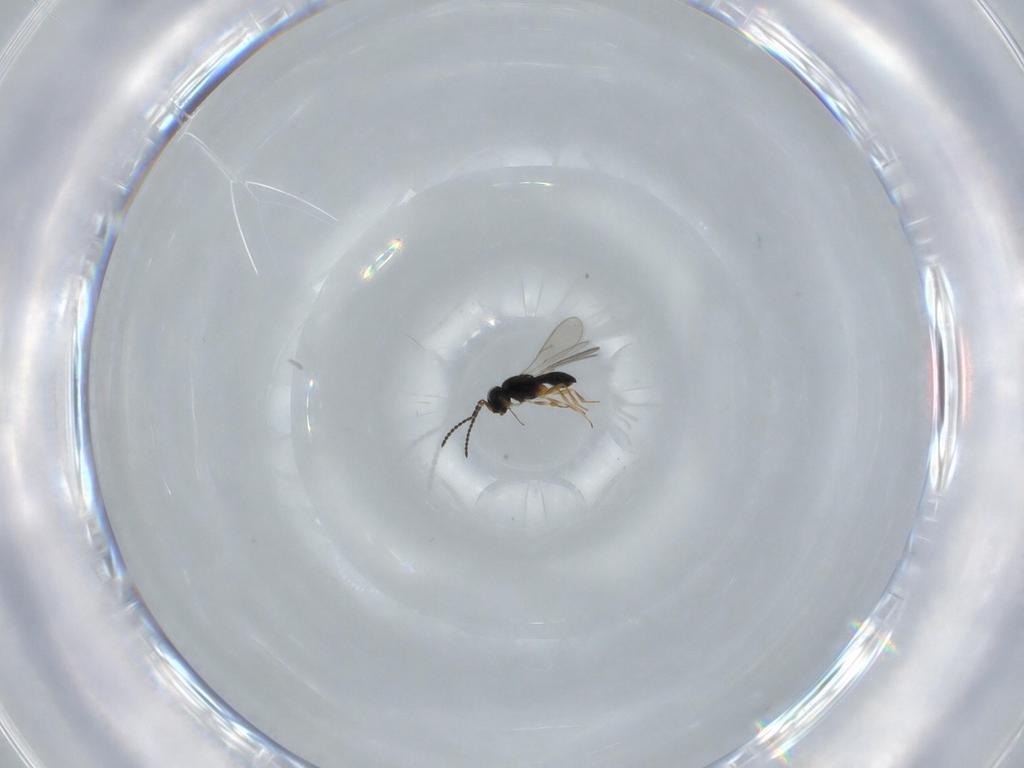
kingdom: Animalia
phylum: Arthropoda
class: Insecta
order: Hymenoptera
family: Scelionidae
